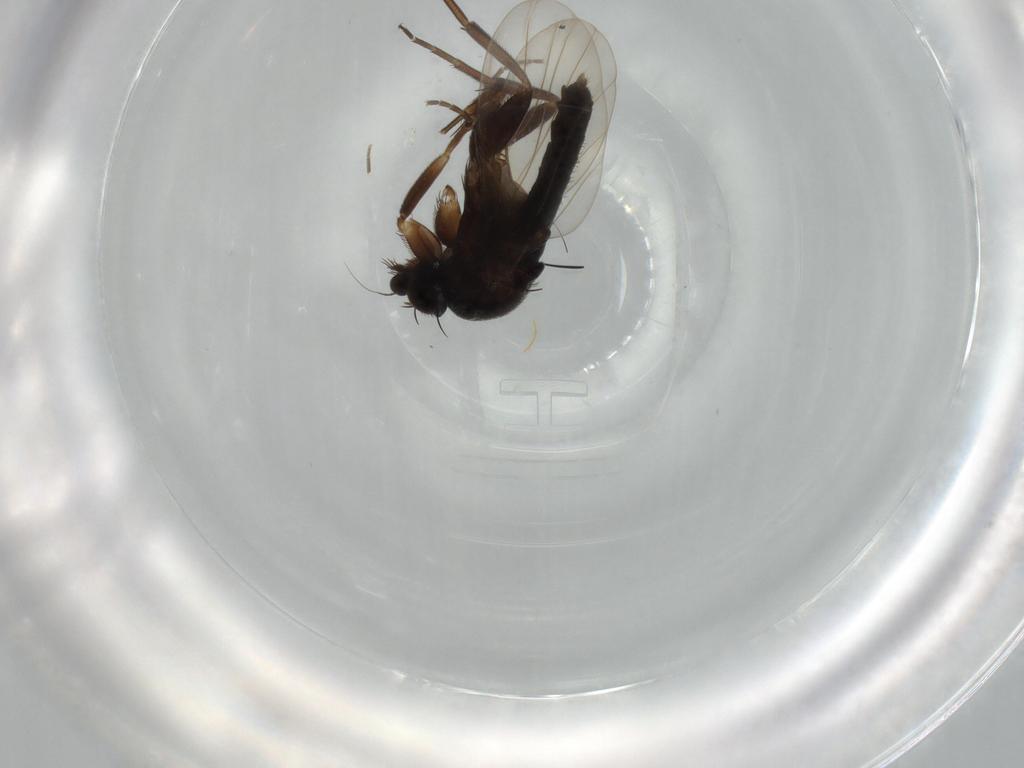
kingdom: Animalia
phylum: Arthropoda
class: Insecta
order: Diptera
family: Phoridae
